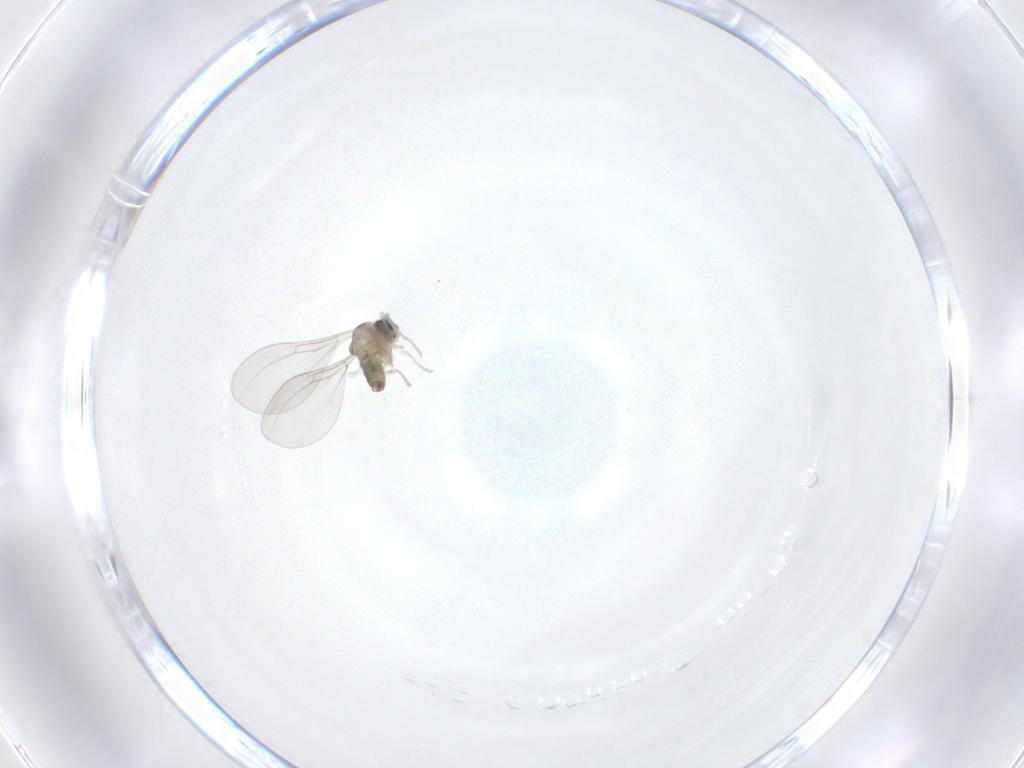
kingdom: Animalia
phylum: Arthropoda
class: Insecta
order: Diptera
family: Cecidomyiidae
